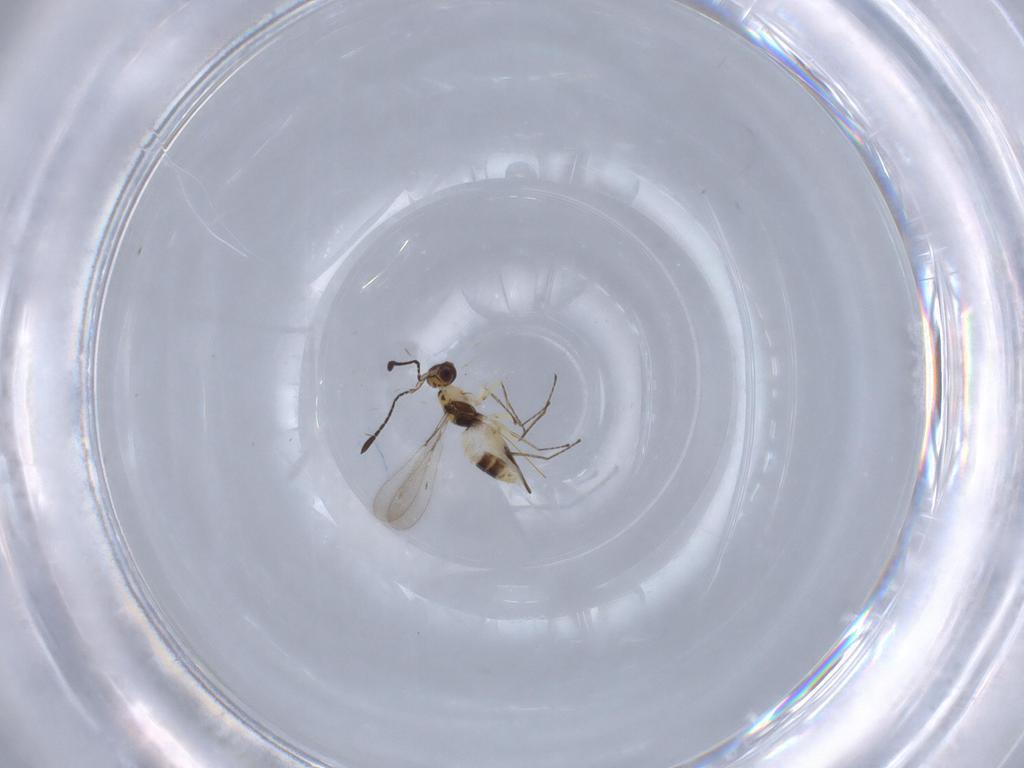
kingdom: Animalia
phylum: Arthropoda
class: Insecta
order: Hymenoptera
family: Mymaridae
